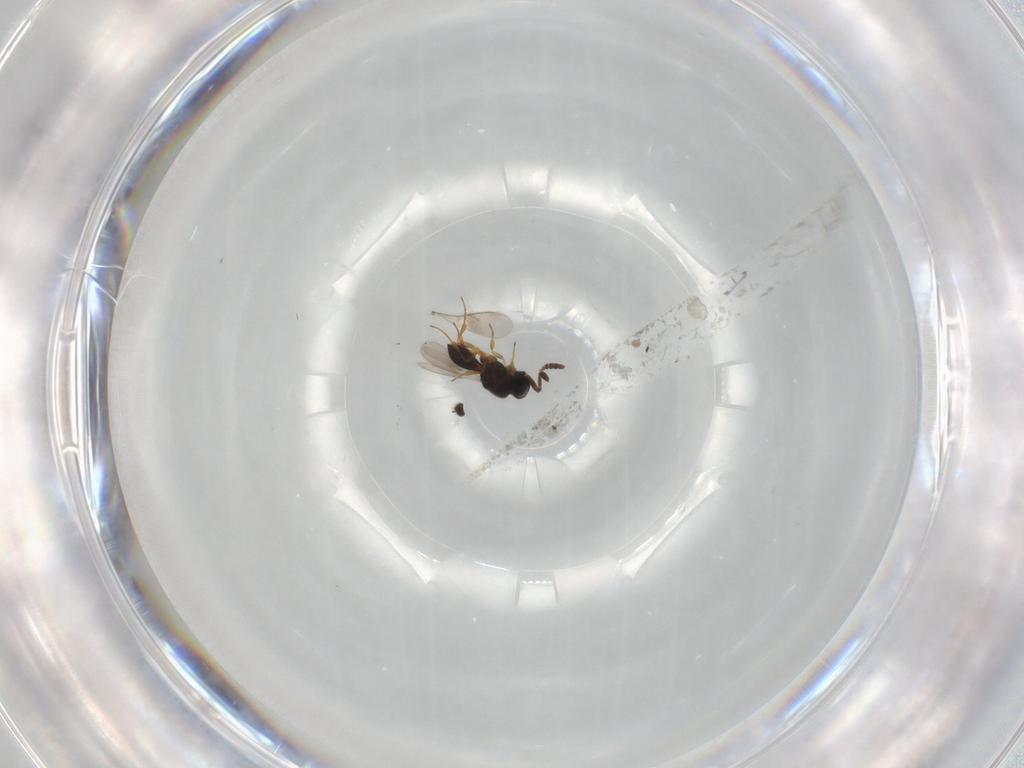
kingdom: Animalia
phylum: Arthropoda
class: Insecta
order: Hymenoptera
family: Scelionidae
